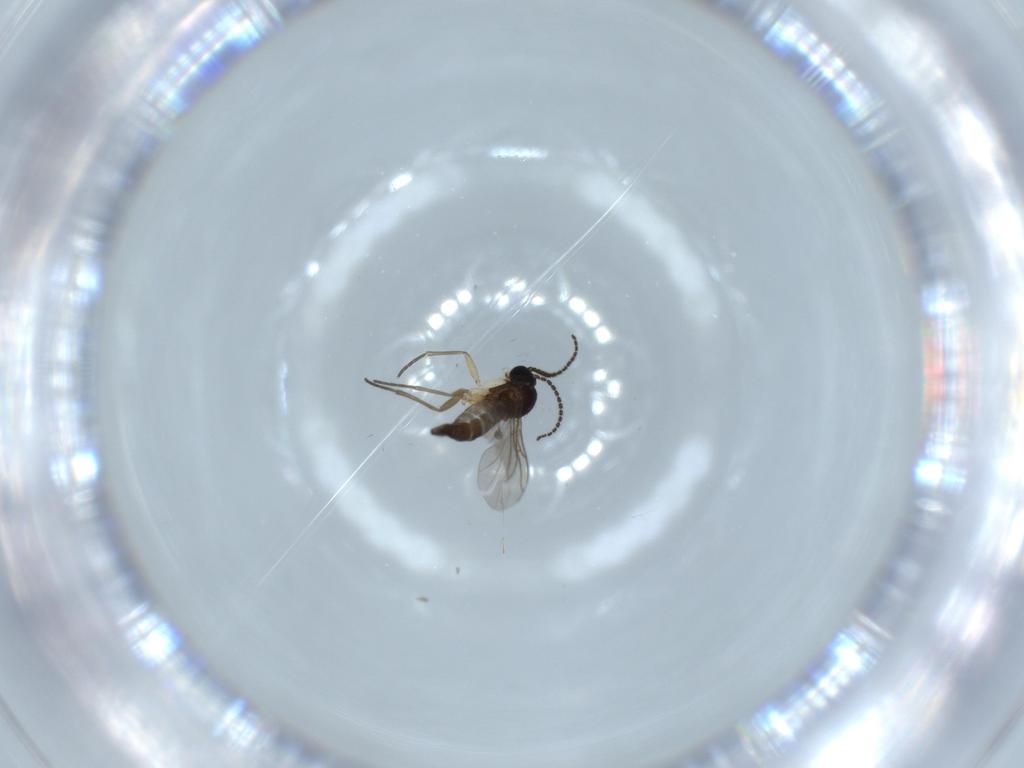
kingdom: Animalia
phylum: Arthropoda
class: Insecta
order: Diptera
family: Sciaridae
